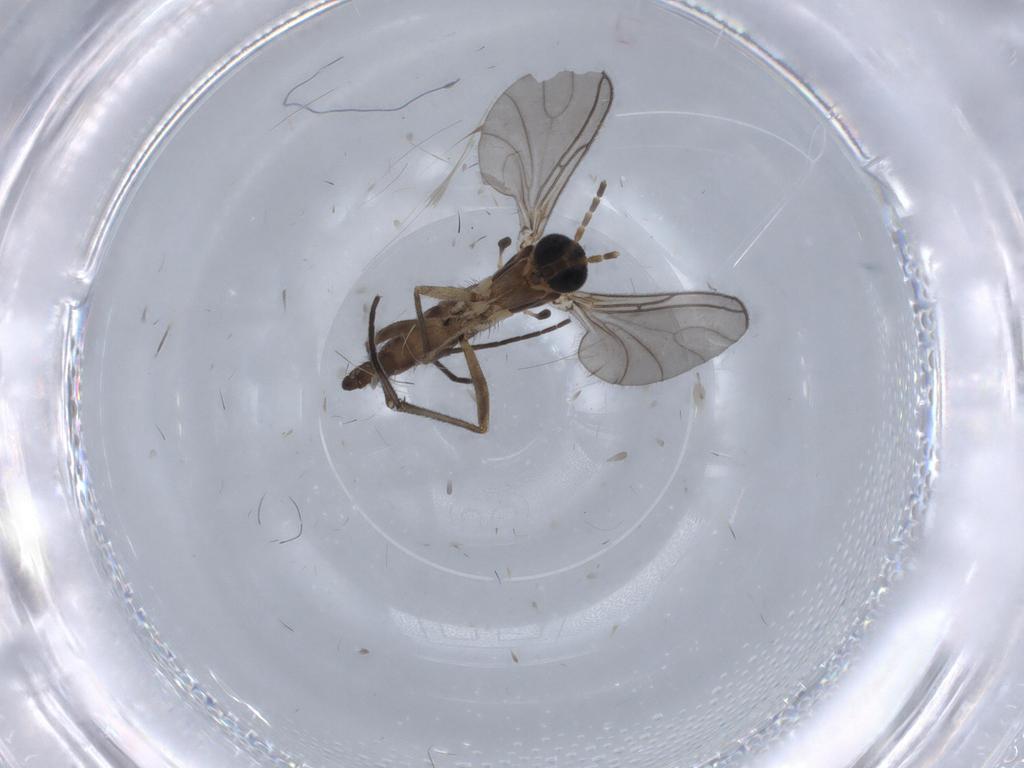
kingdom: Animalia
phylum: Arthropoda
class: Insecta
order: Diptera
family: Sciaridae
